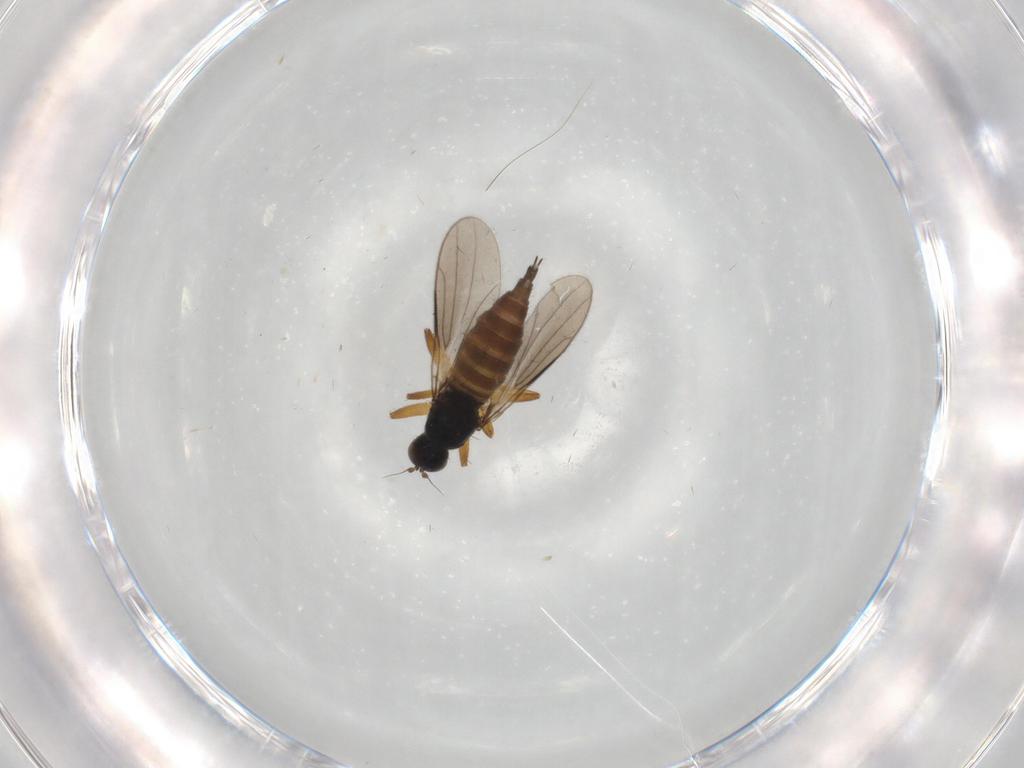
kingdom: Animalia
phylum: Arthropoda
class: Insecta
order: Diptera
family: Hybotidae
